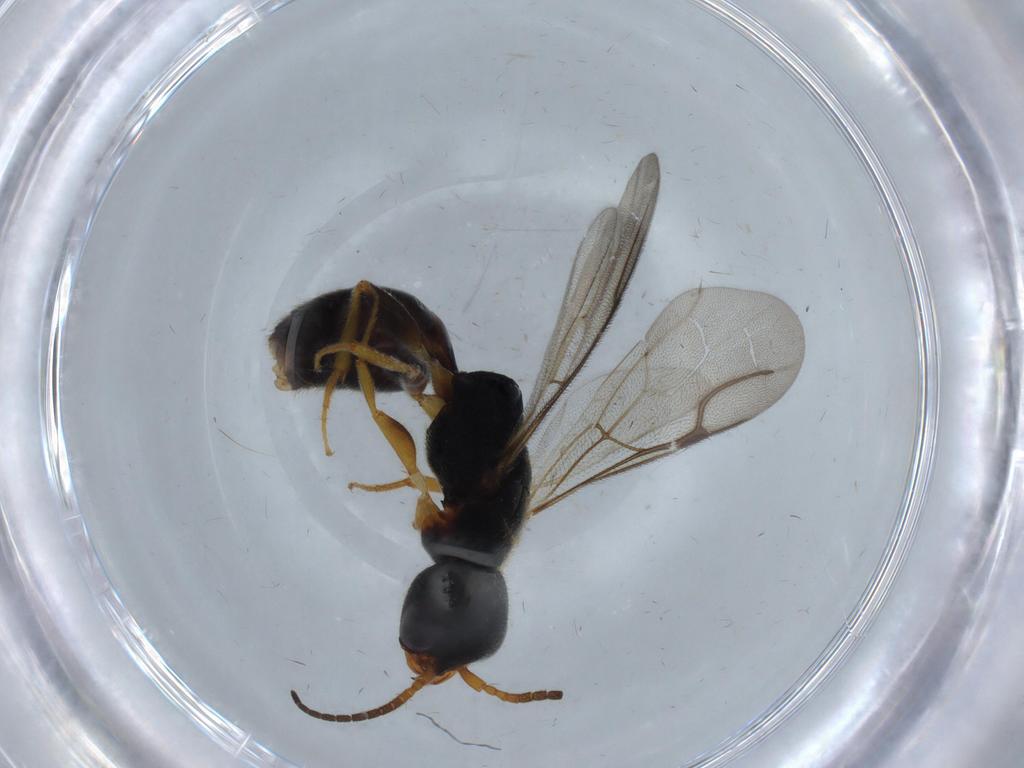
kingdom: Animalia
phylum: Arthropoda
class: Insecta
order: Hymenoptera
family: Bethylidae
